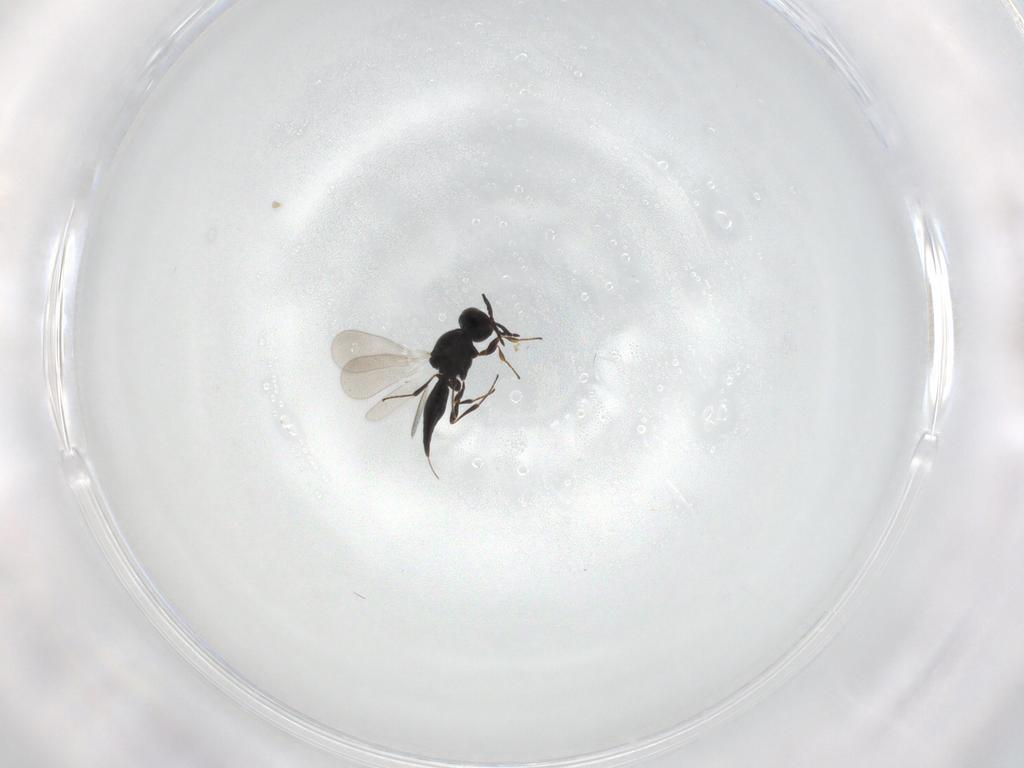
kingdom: Animalia
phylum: Arthropoda
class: Insecta
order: Hymenoptera
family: Platygastridae
